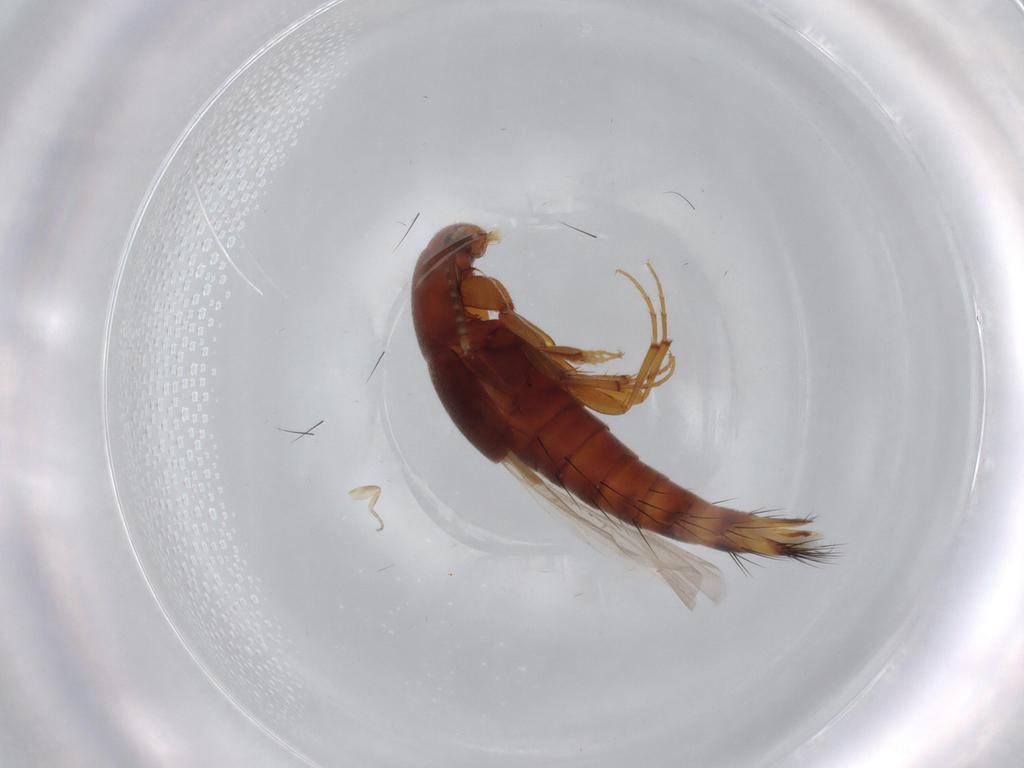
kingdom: Animalia
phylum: Arthropoda
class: Insecta
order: Coleoptera
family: Staphylinidae
